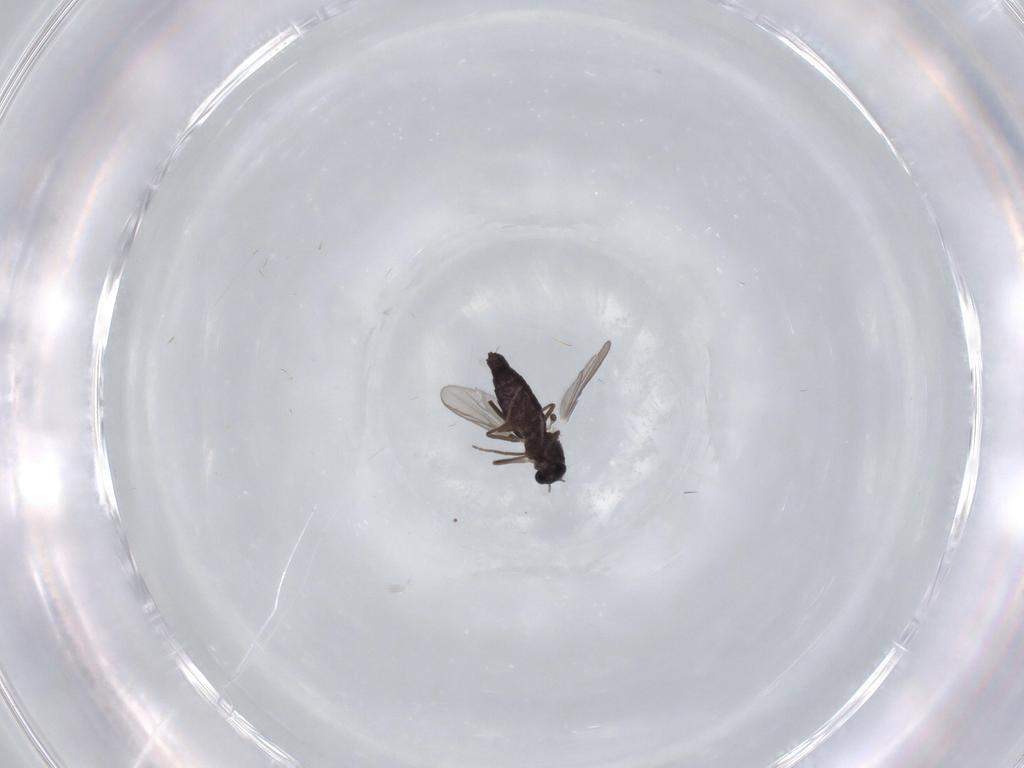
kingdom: Animalia
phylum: Arthropoda
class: Insecta
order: Diptera
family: Chironomidae
